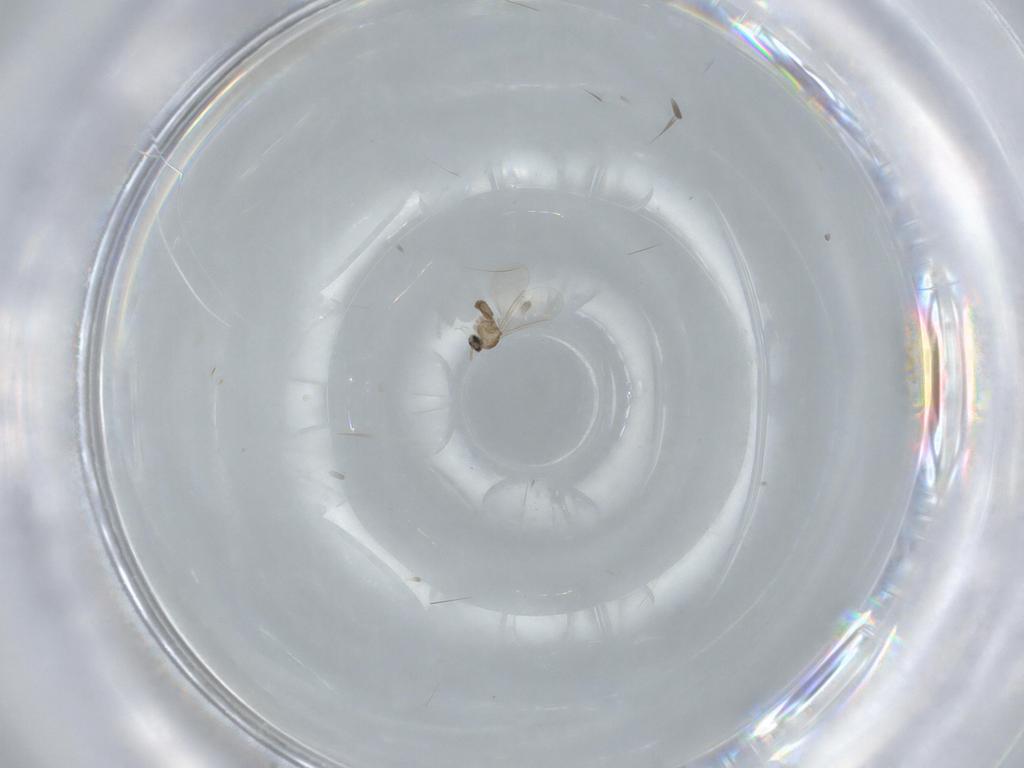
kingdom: Animalia
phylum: Arthropoda
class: Insecta
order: Diptera
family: Cecidomyiidae
